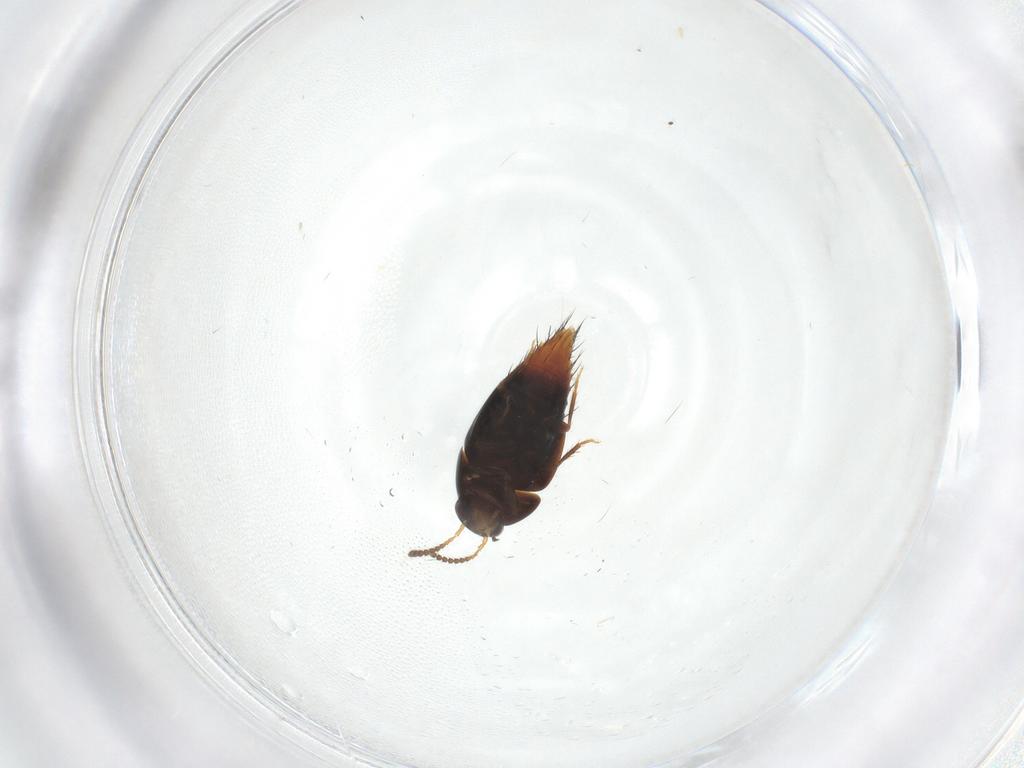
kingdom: Animalia
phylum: Arthropoda
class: Insecta
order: Coleoptera
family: Staphylinidae
